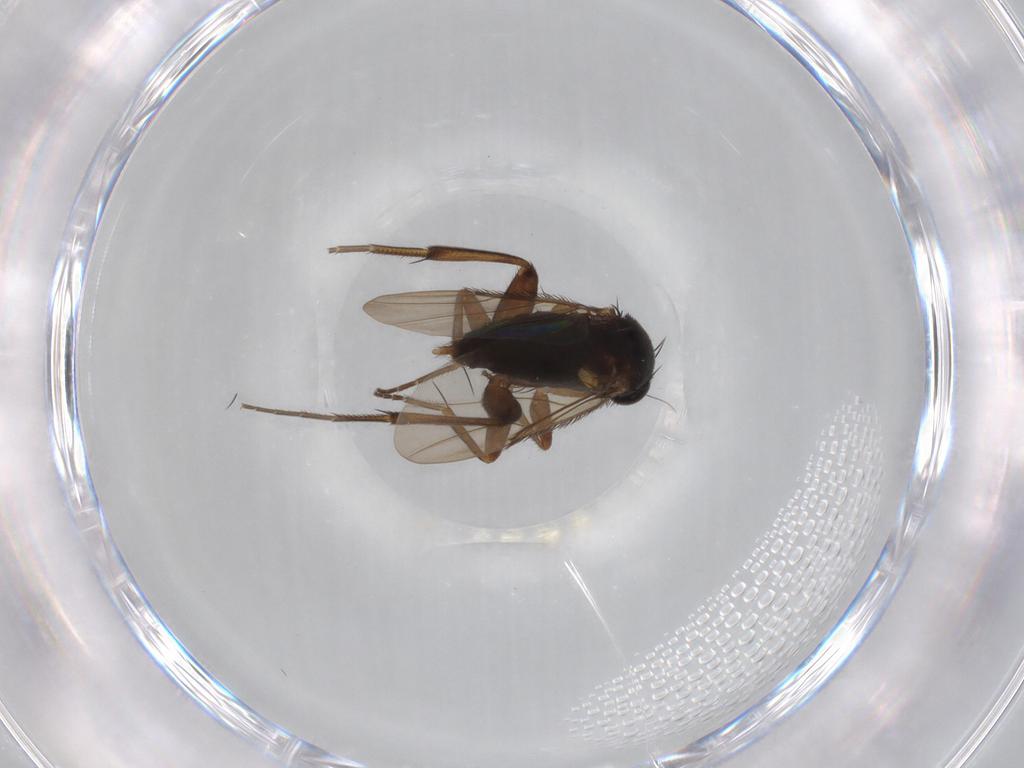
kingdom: Animalia
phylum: Arthropoda
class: Insecta
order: Diptera
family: Phoridae
